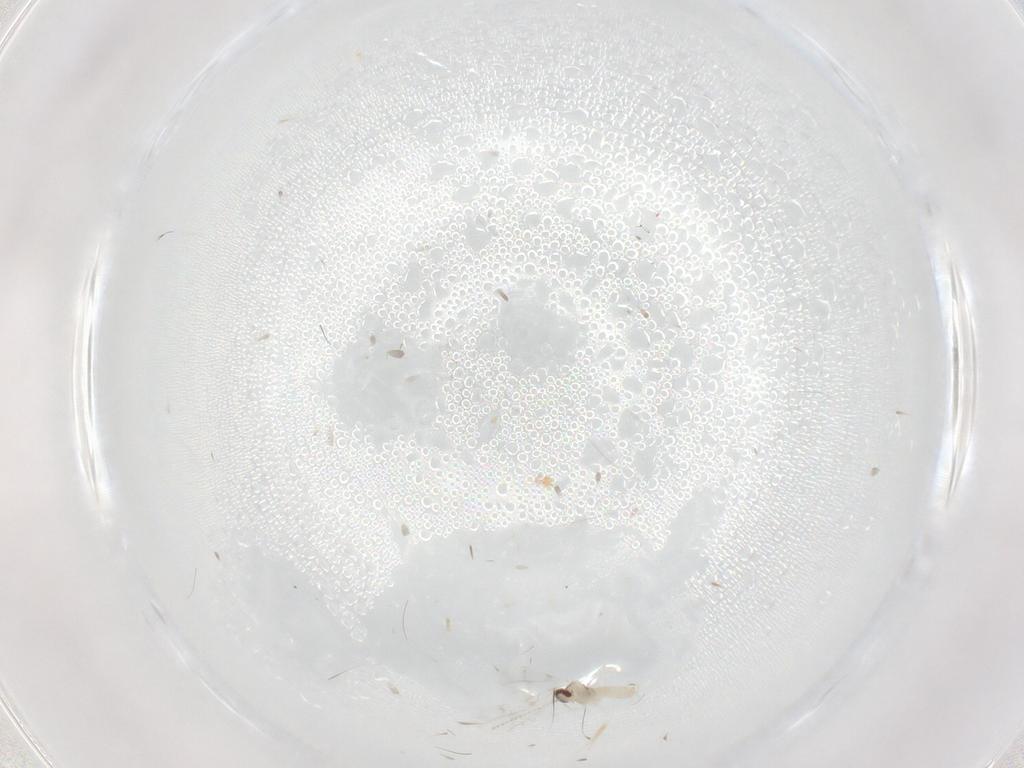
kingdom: Animalia
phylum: Arthropoda
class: Insecta
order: Diptera
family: Cecidomyiidae
